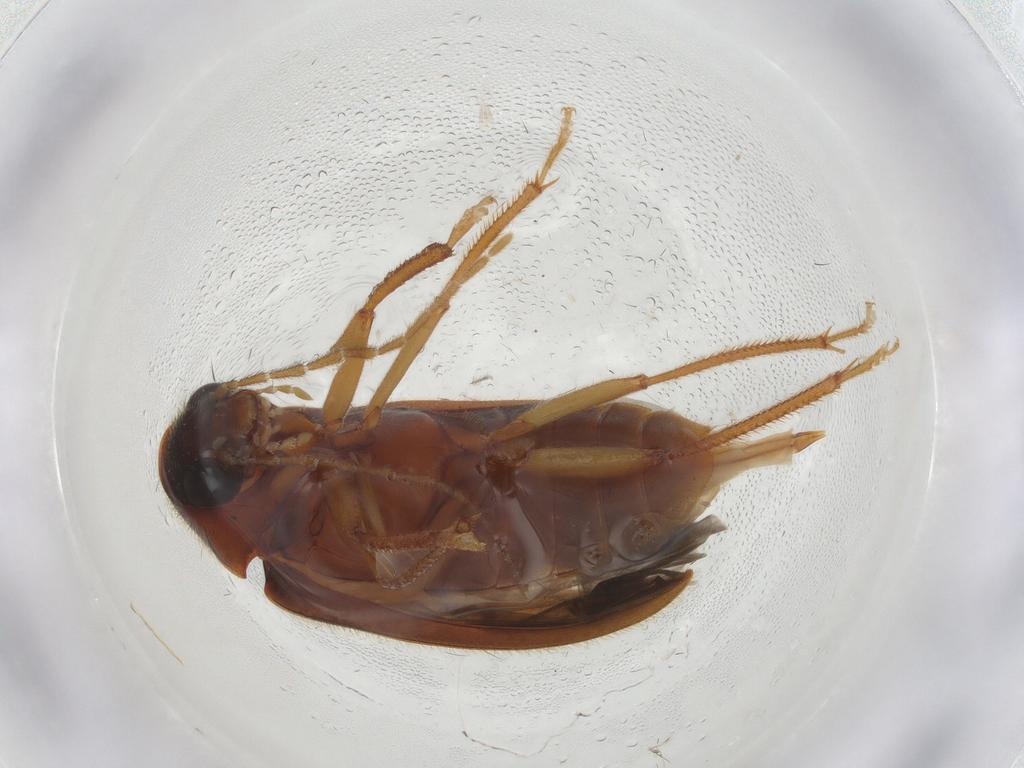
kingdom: Animalia
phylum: Arthropoda
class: Insecta
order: Coleoptera
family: Ptilodactylidae
